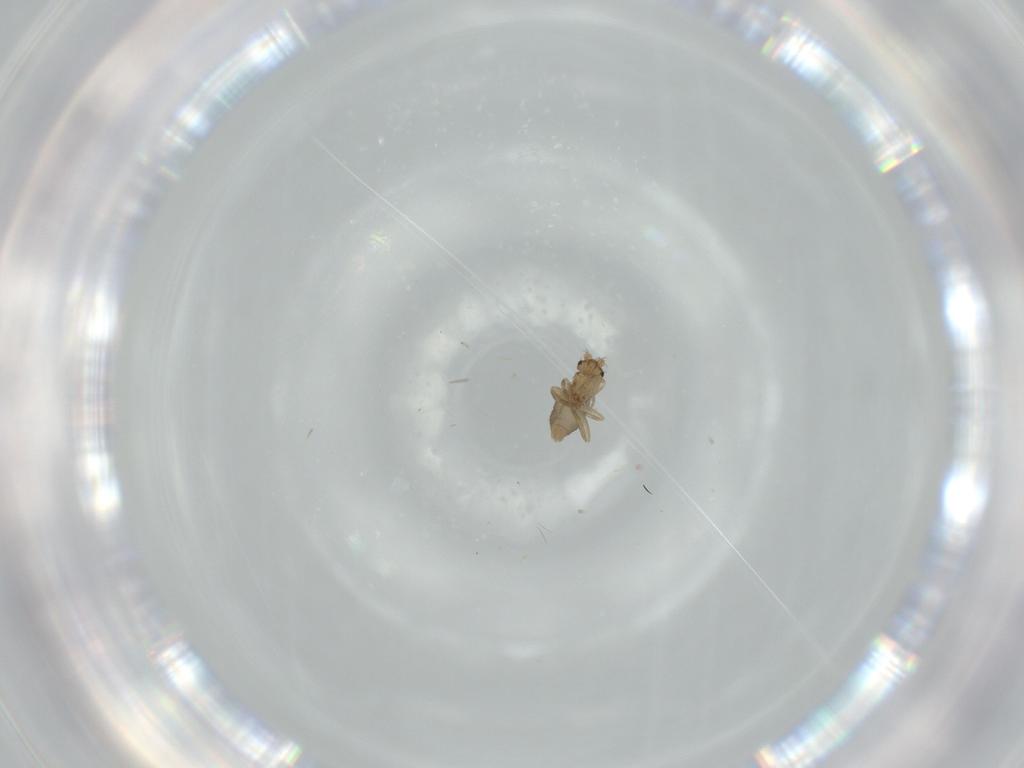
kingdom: Animalia
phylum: Arthropoda
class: Insecta
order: Diptera
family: Phoridae
